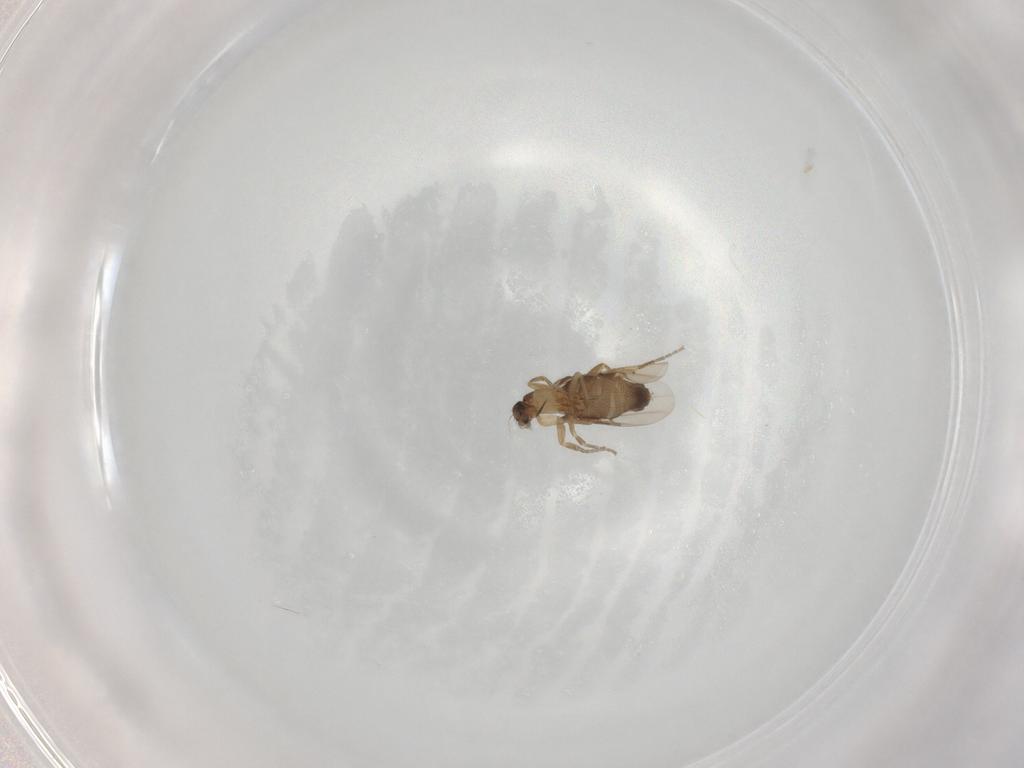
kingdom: Animalia
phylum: Arthropoda
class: Insecta
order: Diptera
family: Phoridae
